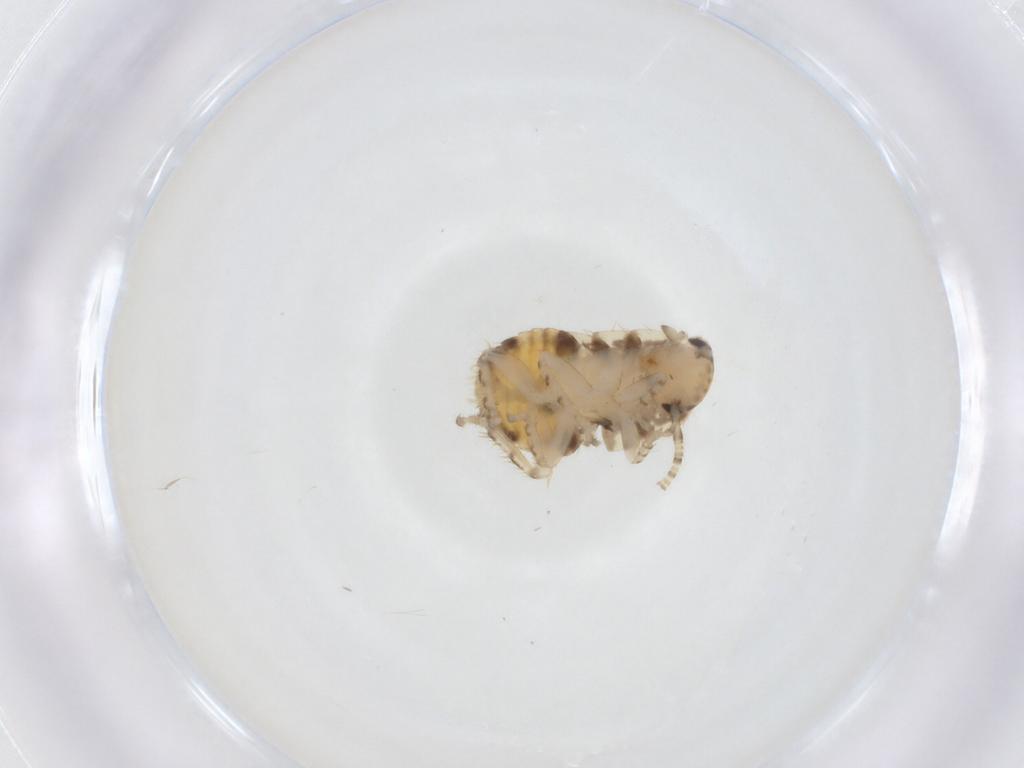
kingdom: Animalia
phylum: Arthropoda
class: Insecta
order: Blattodea
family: Ectobiidae
